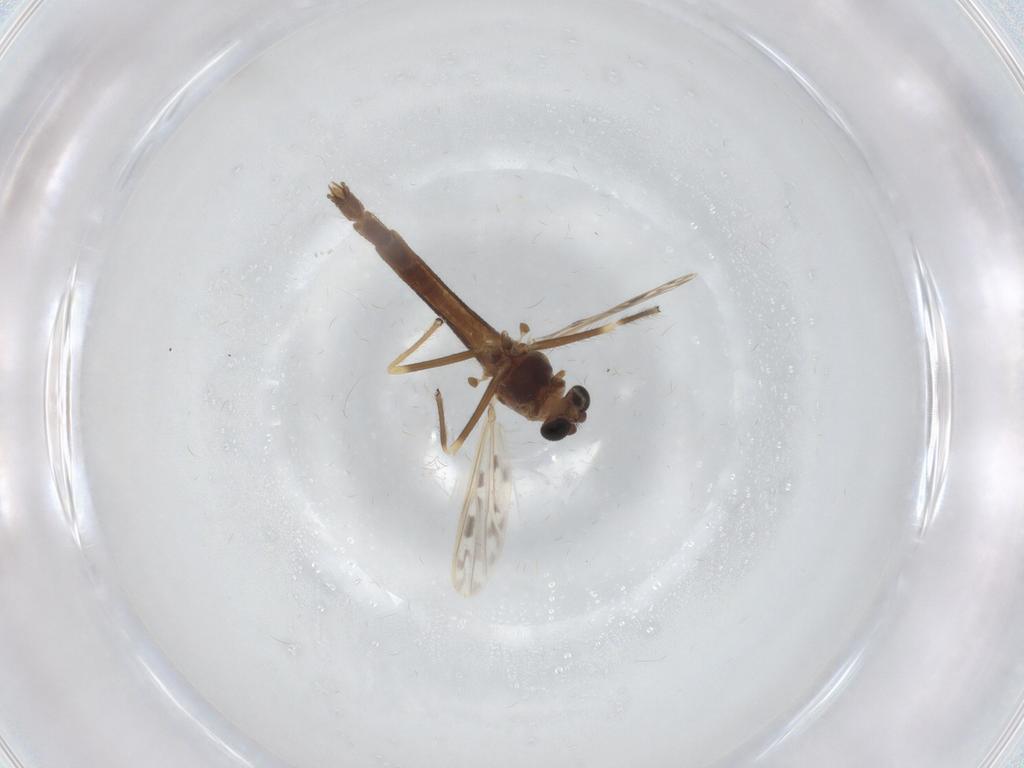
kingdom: Animalia
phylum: Arthropoda
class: Insecta
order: Diptera
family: Chironomidae
